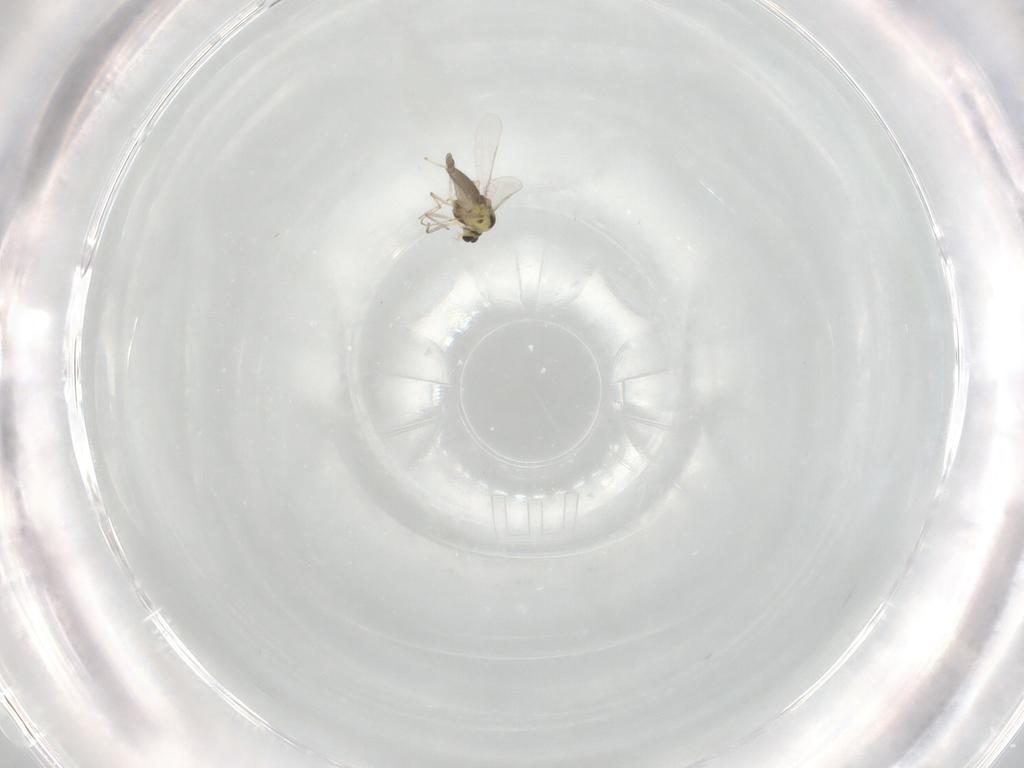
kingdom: Animalia
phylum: Arthropoda
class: Insecta
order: Diptera
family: Chironomidae
